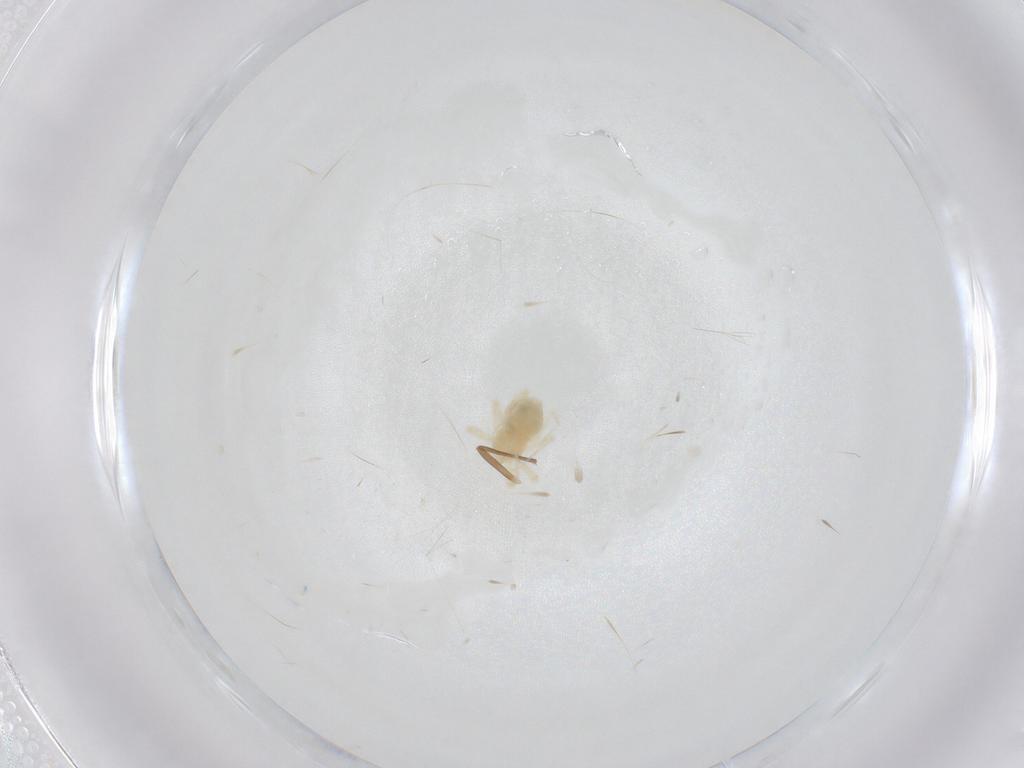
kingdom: Animalia
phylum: Arthropoda
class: Arachnida
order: Trombidiformes
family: Anystidae
